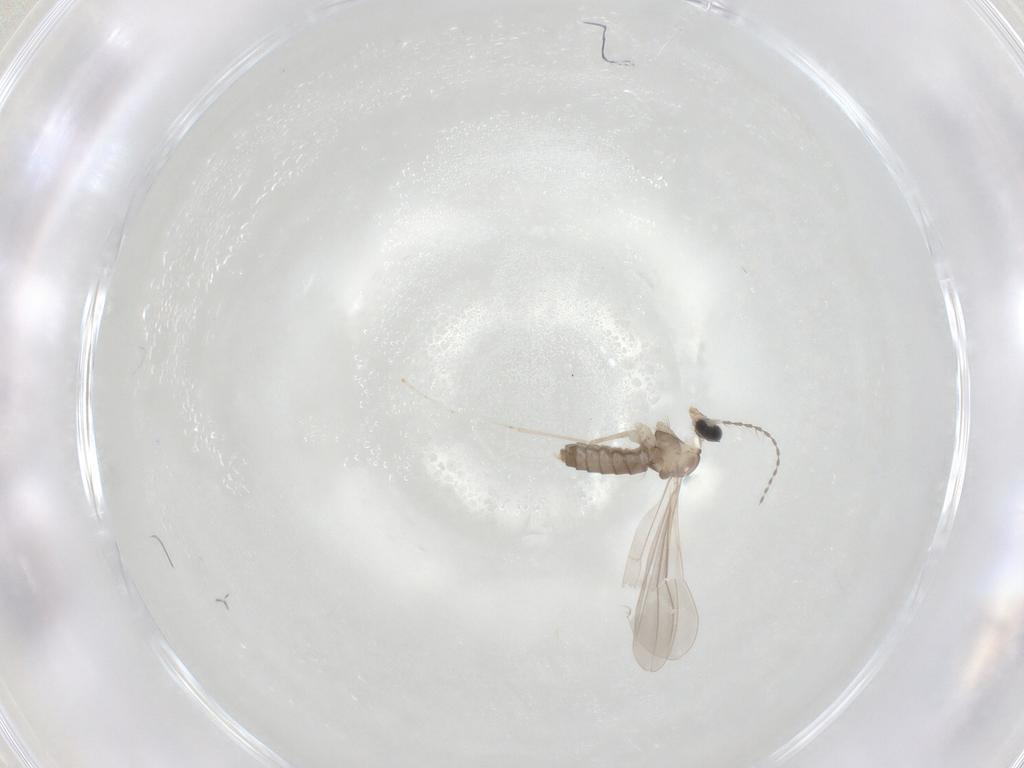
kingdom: Animalia
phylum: Arthropoda
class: Insecta
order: Diptera
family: Cecidomyiidae
